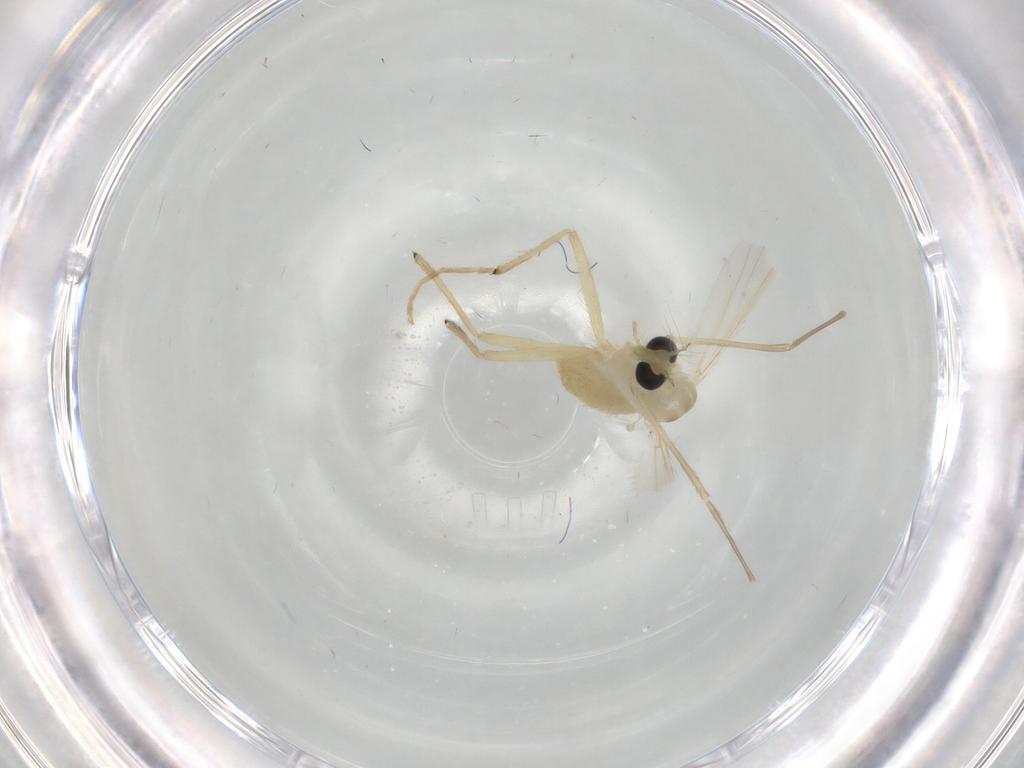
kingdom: Animalia
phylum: Arthropoda
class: Insecta
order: Diptera
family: Chironomidae
